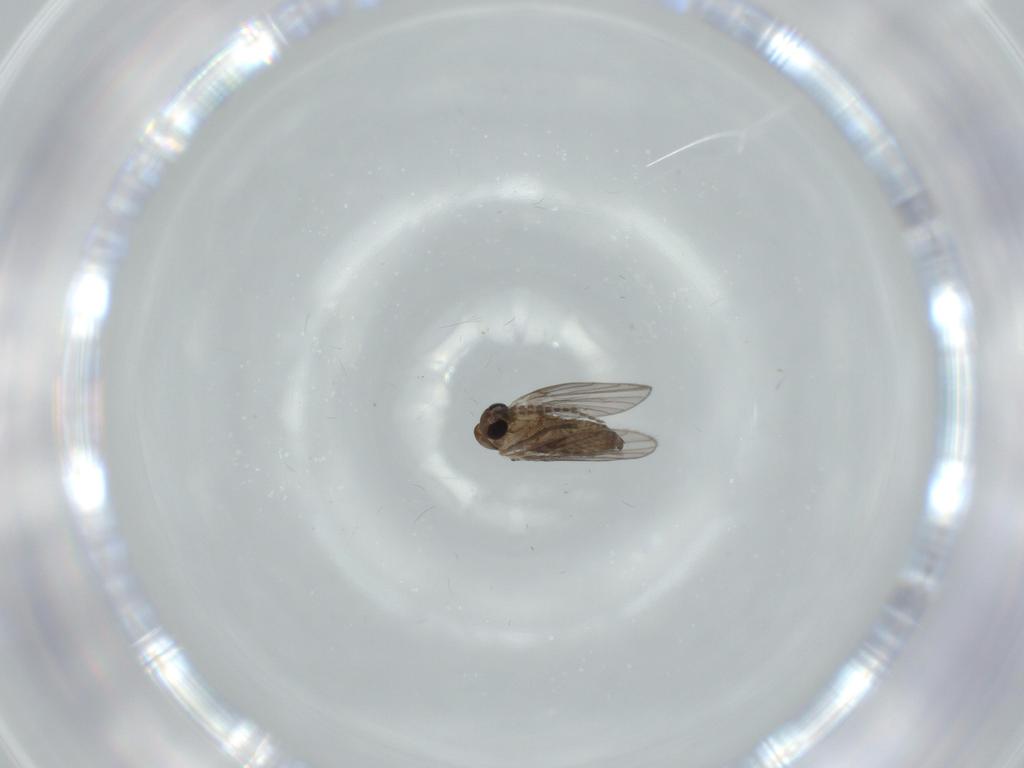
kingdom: Animalia
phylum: Arthropoda
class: Insecta
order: Diptera
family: Psychodidae
